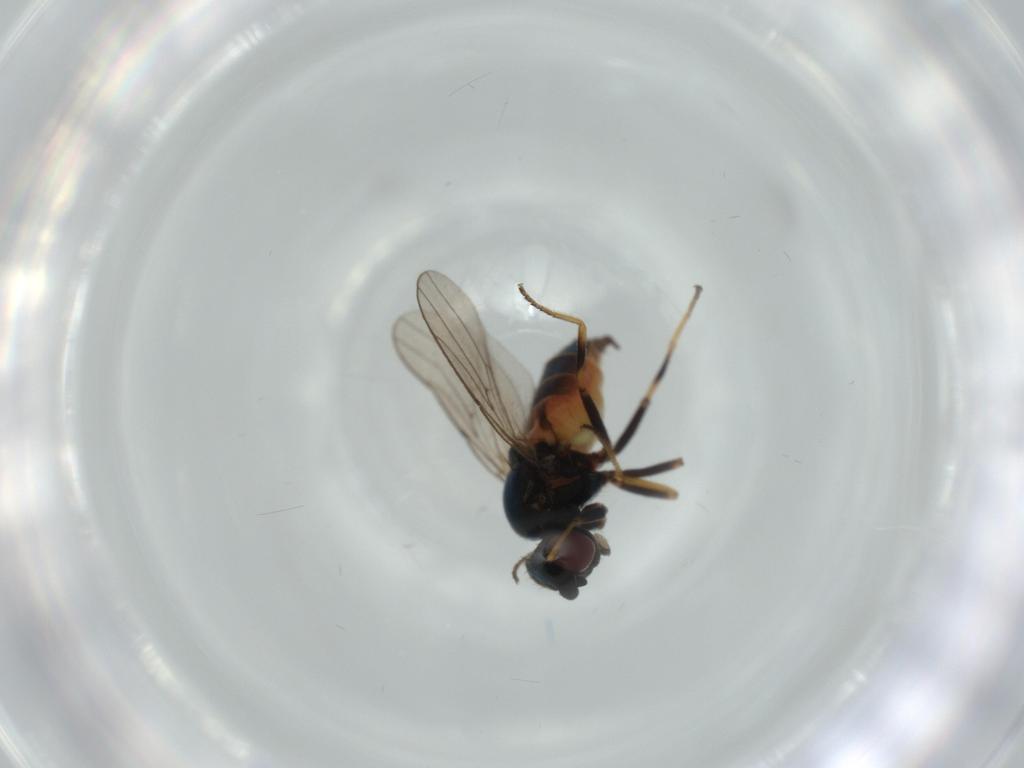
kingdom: Animalia
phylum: Arthropoda
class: Insecta
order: Diptera
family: Chloropidae
